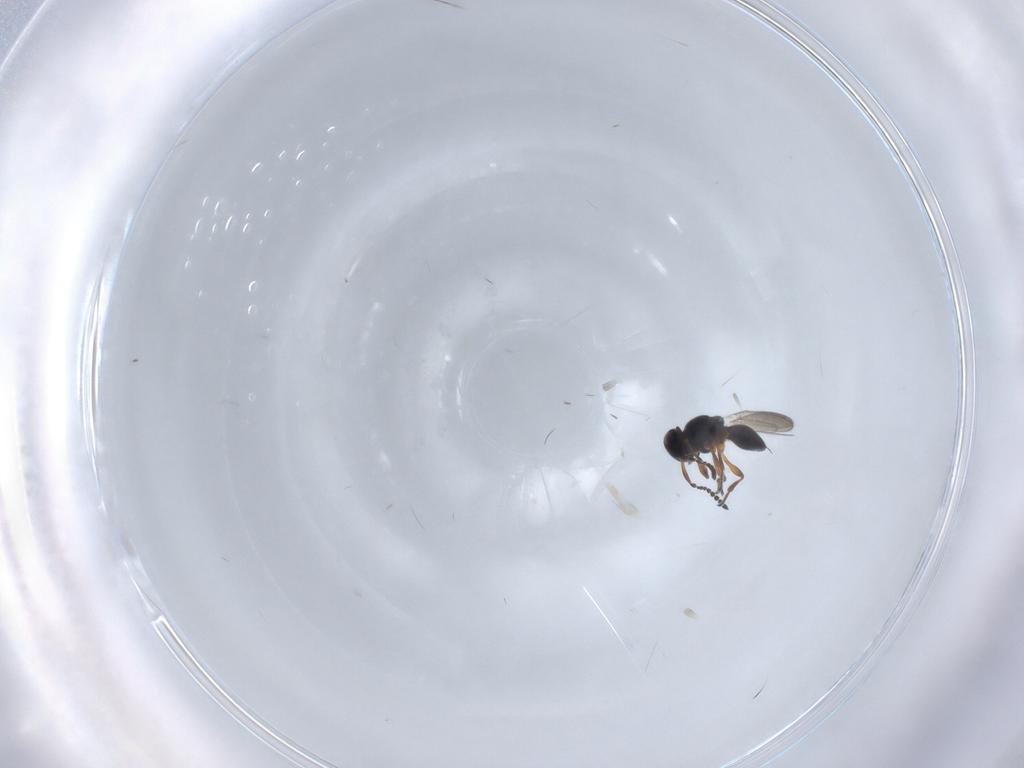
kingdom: Animalia
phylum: Arthropoda
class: Insecta
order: Hymenoptera
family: Platygastridae
